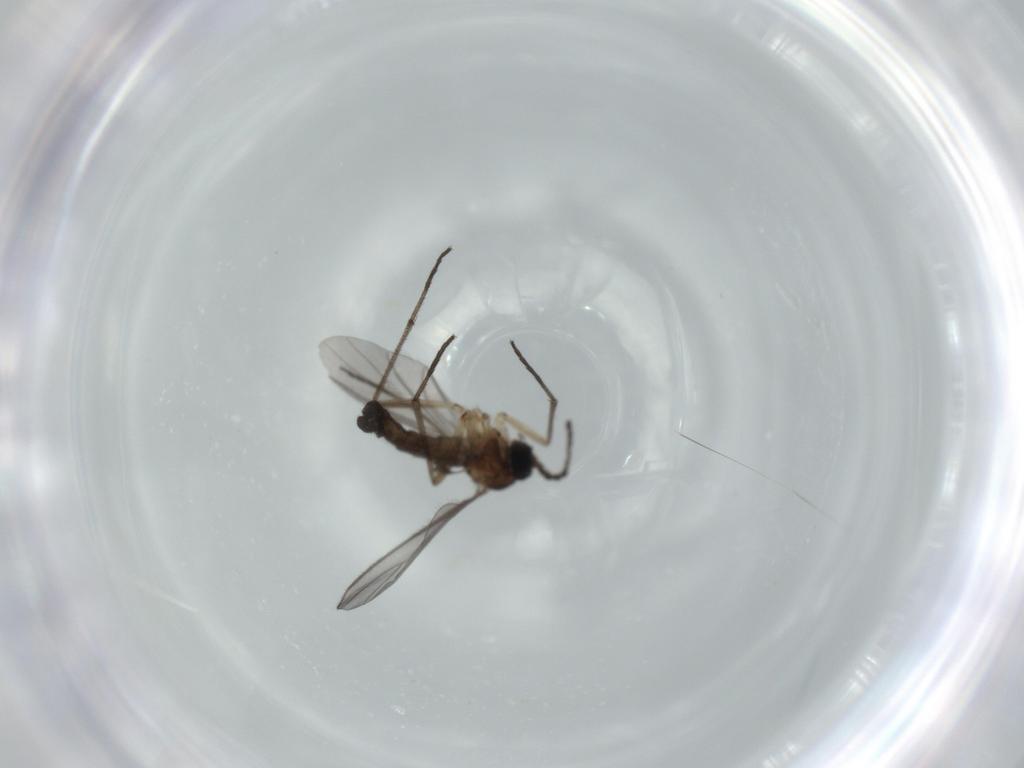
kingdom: Animalia
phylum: Arthropoda
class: Insecta
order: Diptera
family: Sciaridae
